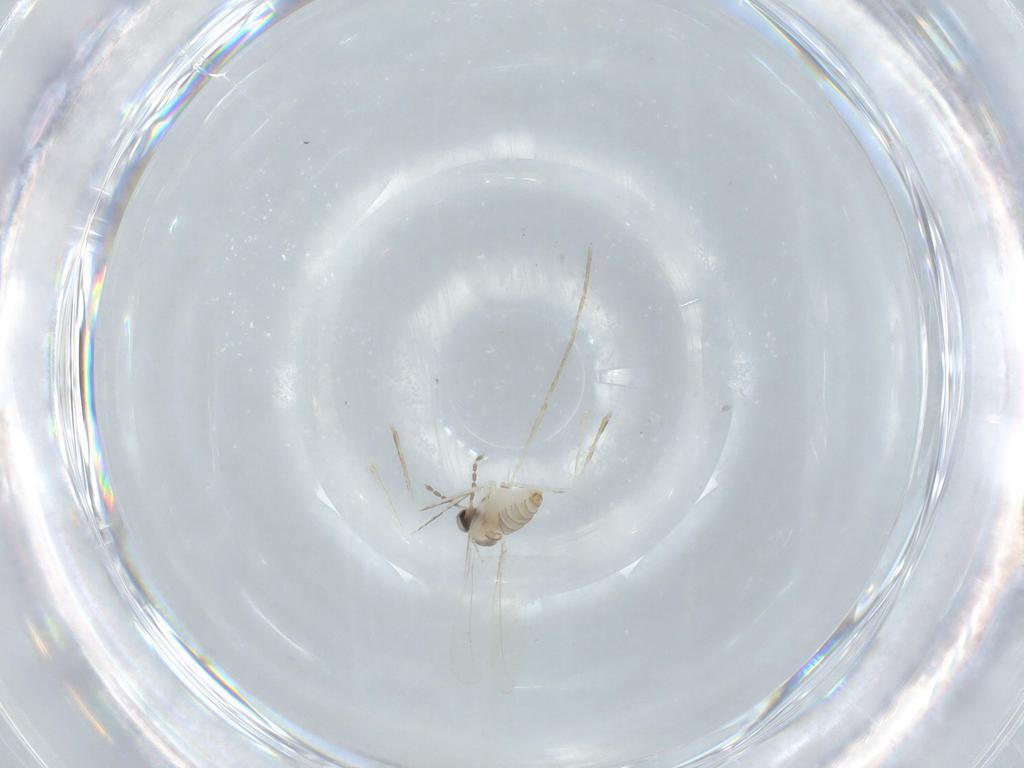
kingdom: Animalia
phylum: Arthropoda
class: Insecta
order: Diptera
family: Cecidomyiidae
